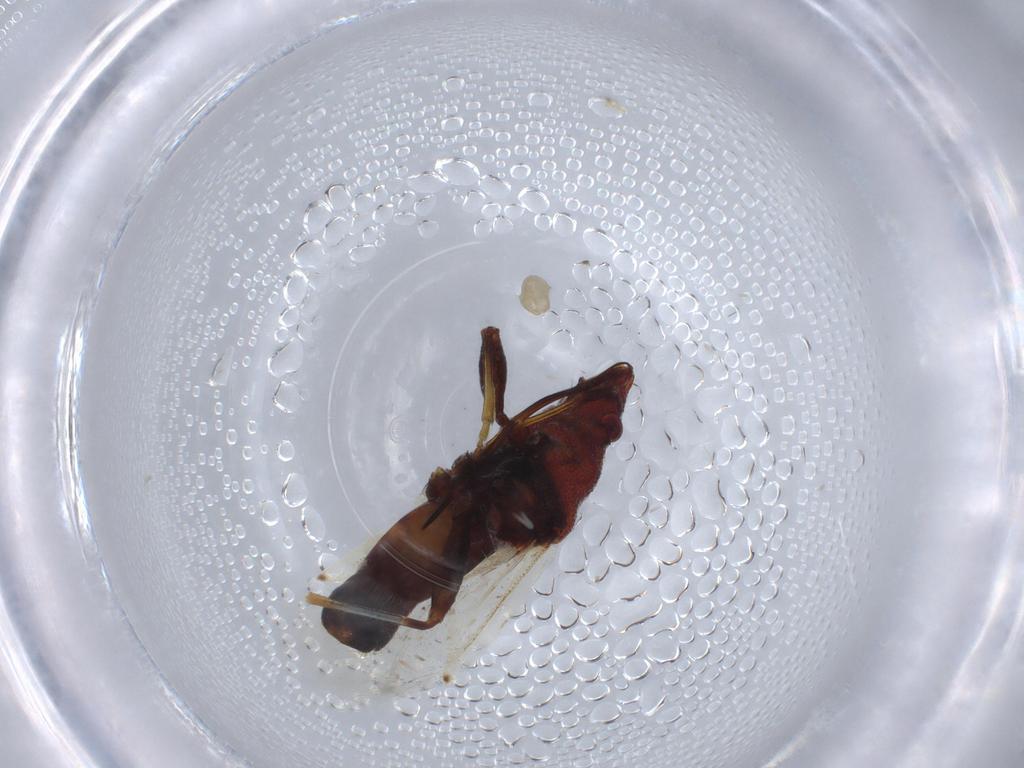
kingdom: Animalia
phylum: Arthropoda
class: Insecta
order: Hemiptera
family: Oxycarenidae
